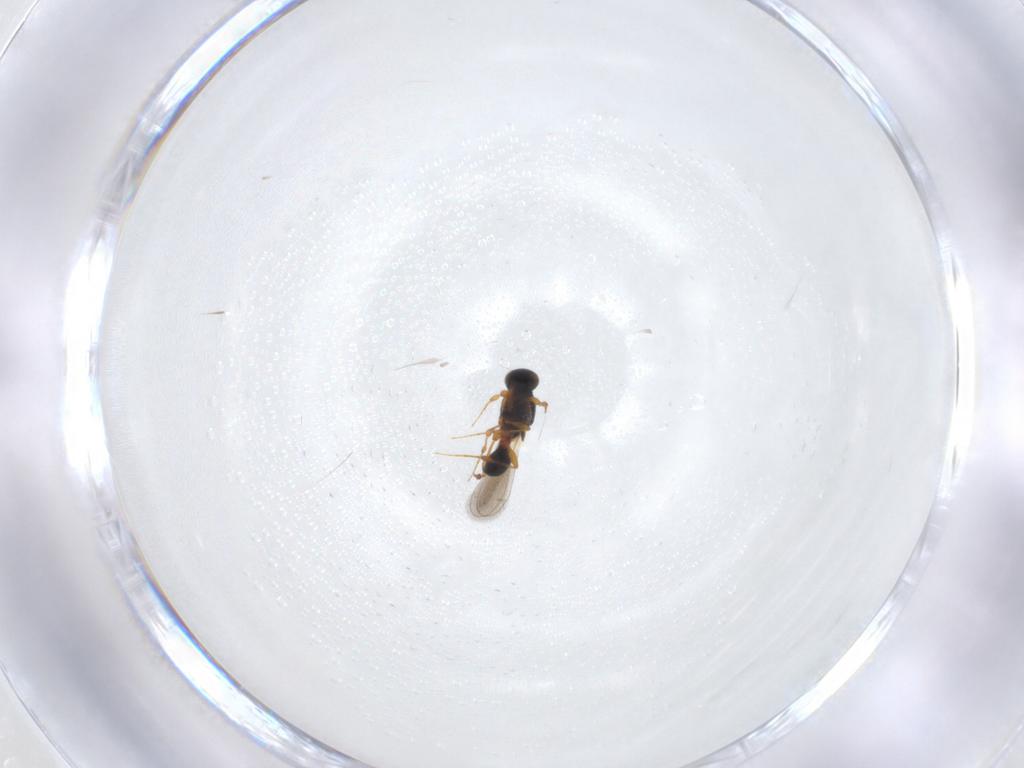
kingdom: Animalia
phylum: Arthropoda
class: Insecta
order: Hymenoptera
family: Platygastridae
